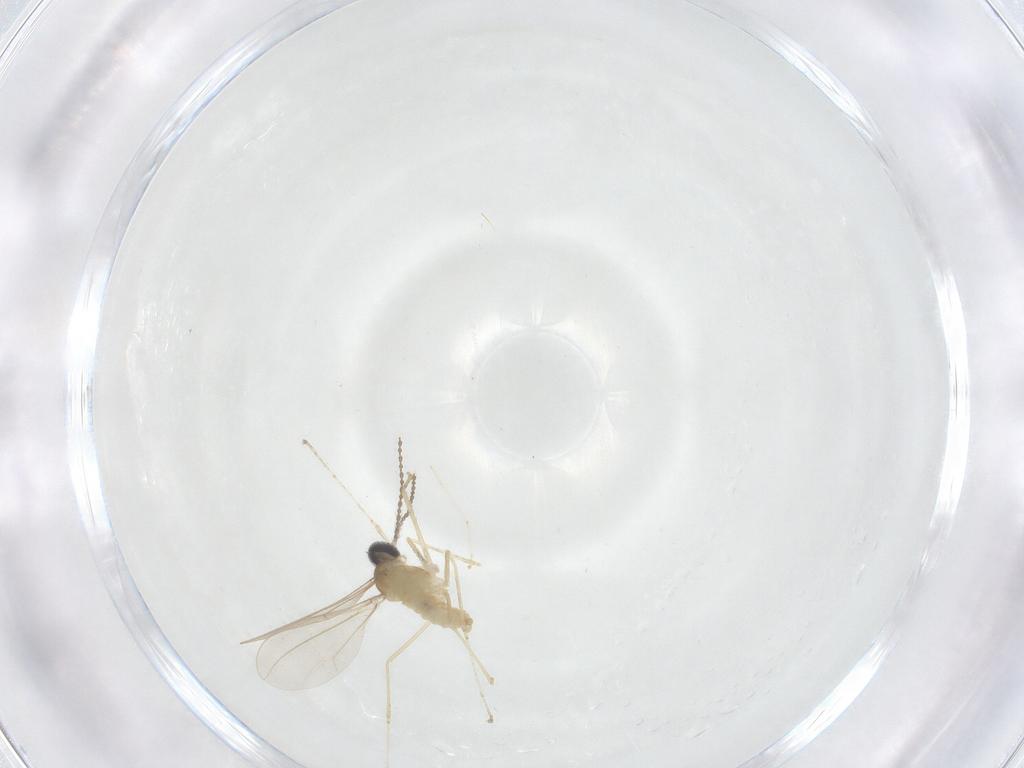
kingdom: Animalia
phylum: Arthropoda
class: Insecta
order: Diptera
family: Cecidomyiidae
